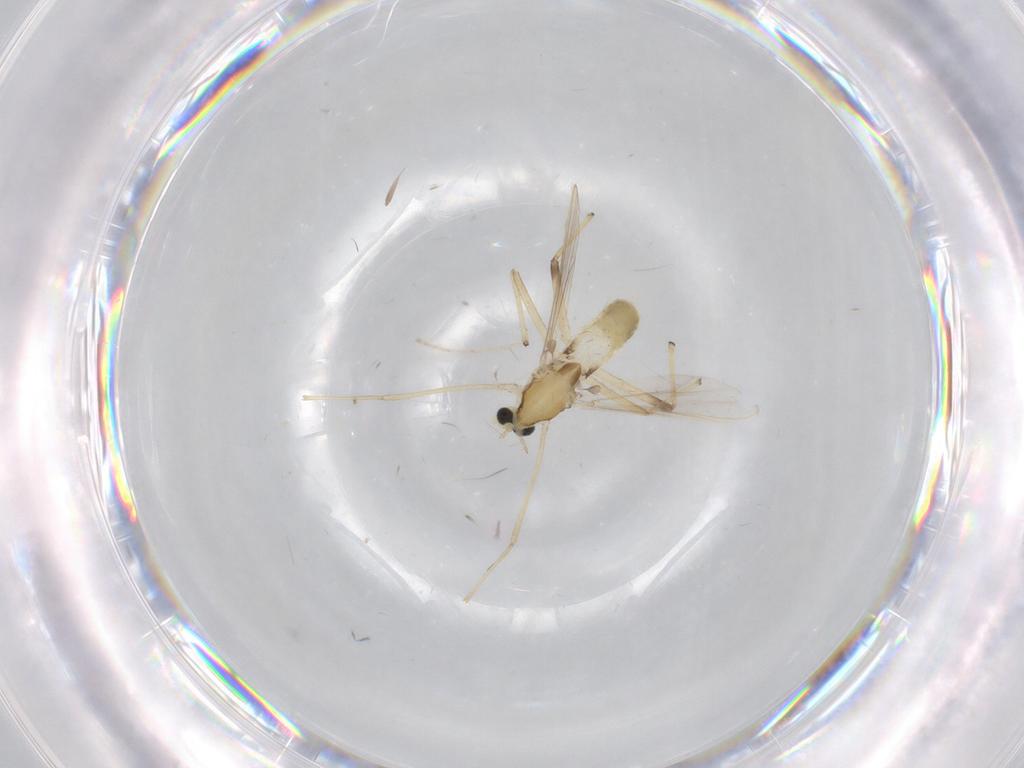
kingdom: Animalia
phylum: Arthropoda
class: Insecta
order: Diptera
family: Chironomidae
